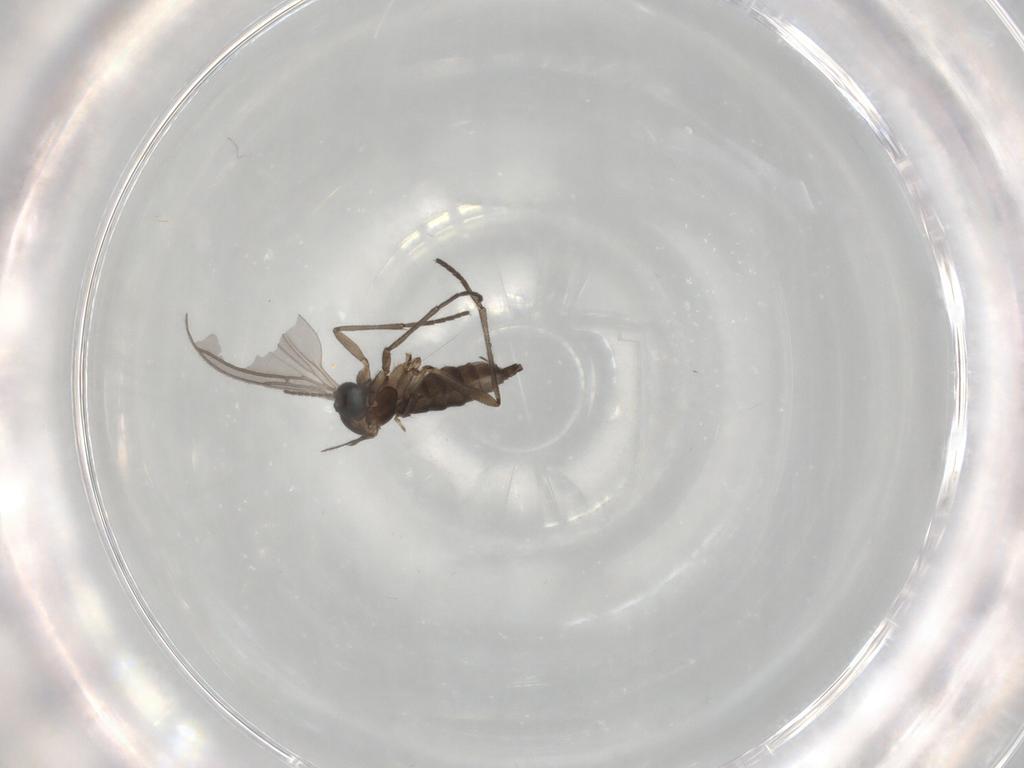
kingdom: Animalia
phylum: Arthropoda
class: Insecta
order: Diptera
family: Sciaridae
